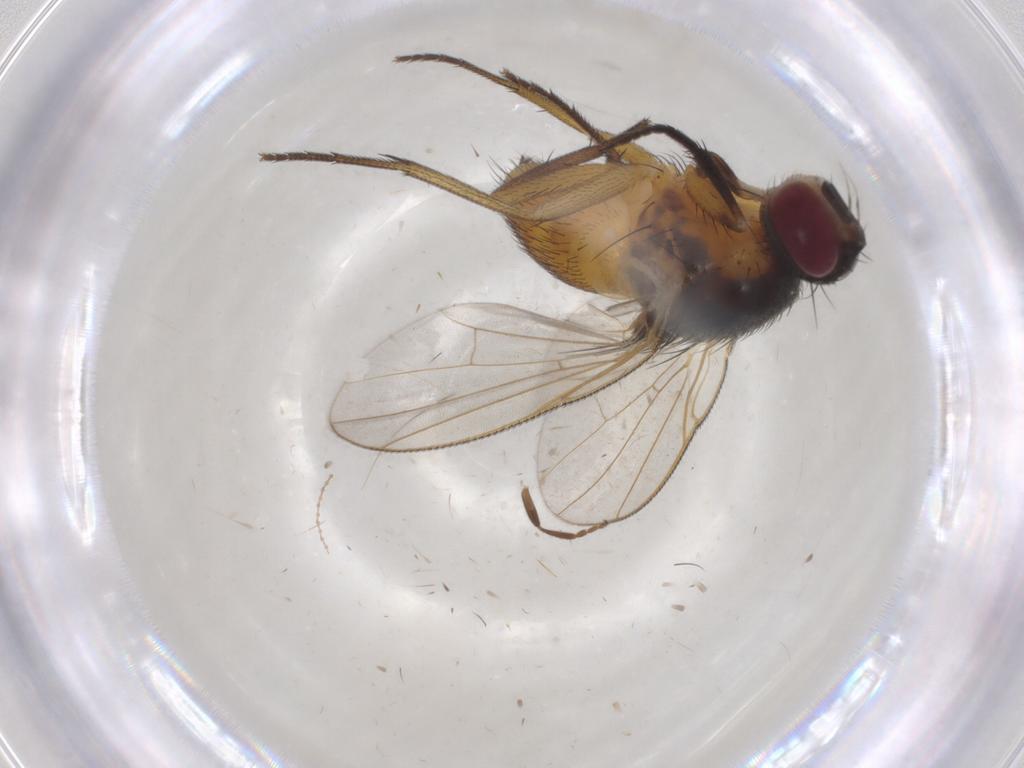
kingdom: Animalia
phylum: Arthropoda
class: Insecta
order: Diptera
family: Muscidae
